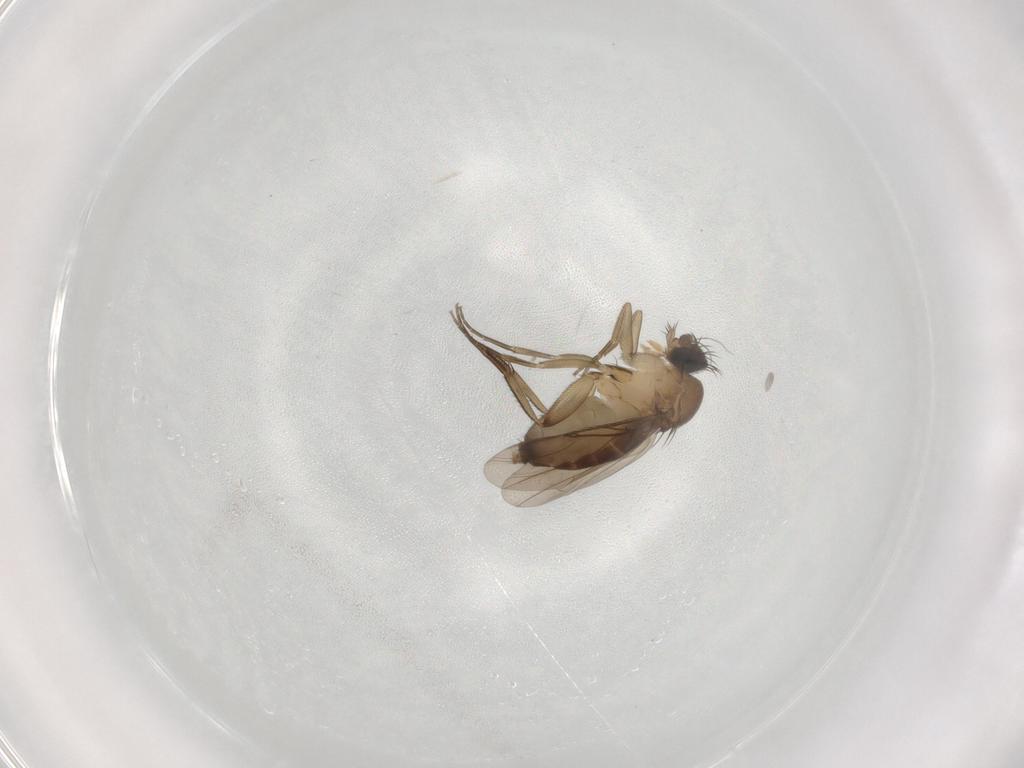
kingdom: Animalia
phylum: Arthropoda
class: Insecta
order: Diptera
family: Phoridae
